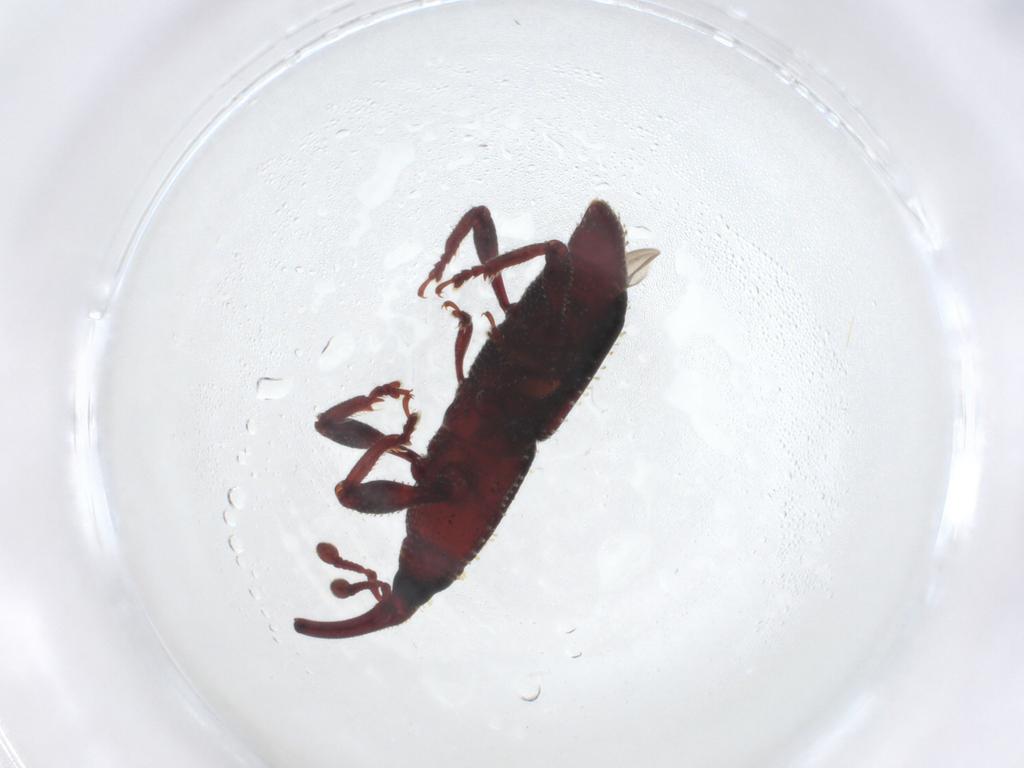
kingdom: Animalia
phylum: Arthropoda
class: Insecta
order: Coleoptera
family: Curculionidae
